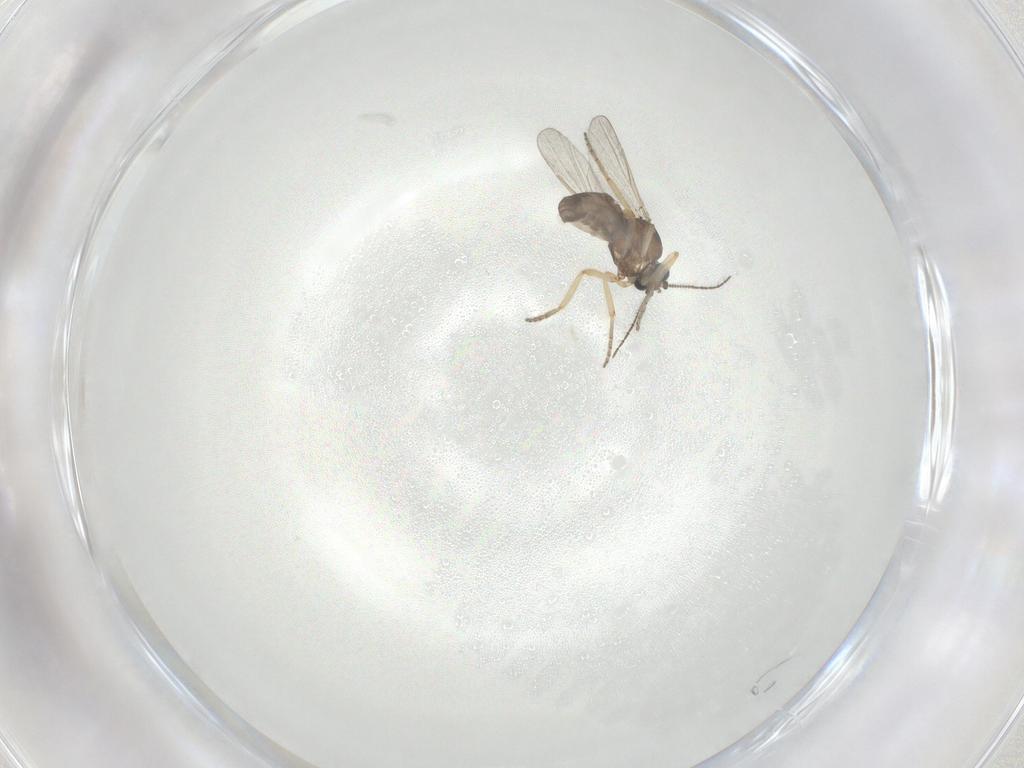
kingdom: Animalia
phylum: Arthropoda
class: Insecta
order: Diptera
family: Ceratopogonidae
